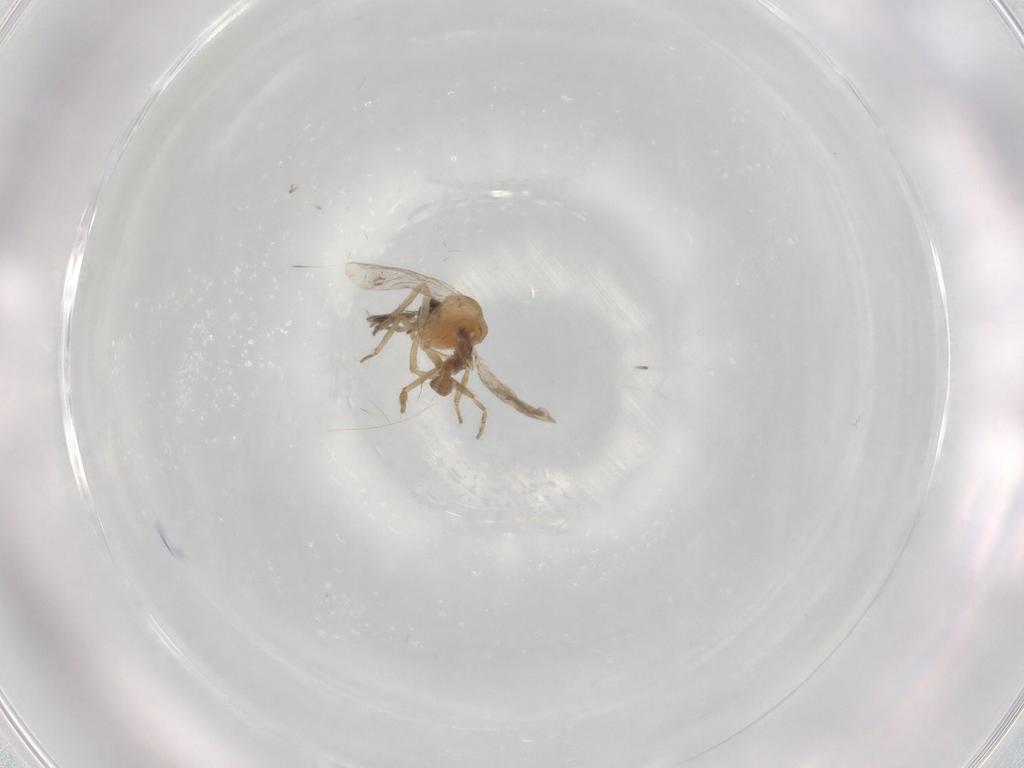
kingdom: Animalia
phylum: Arthropoda
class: Insecta
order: Diptera
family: Ceratopogonidae
